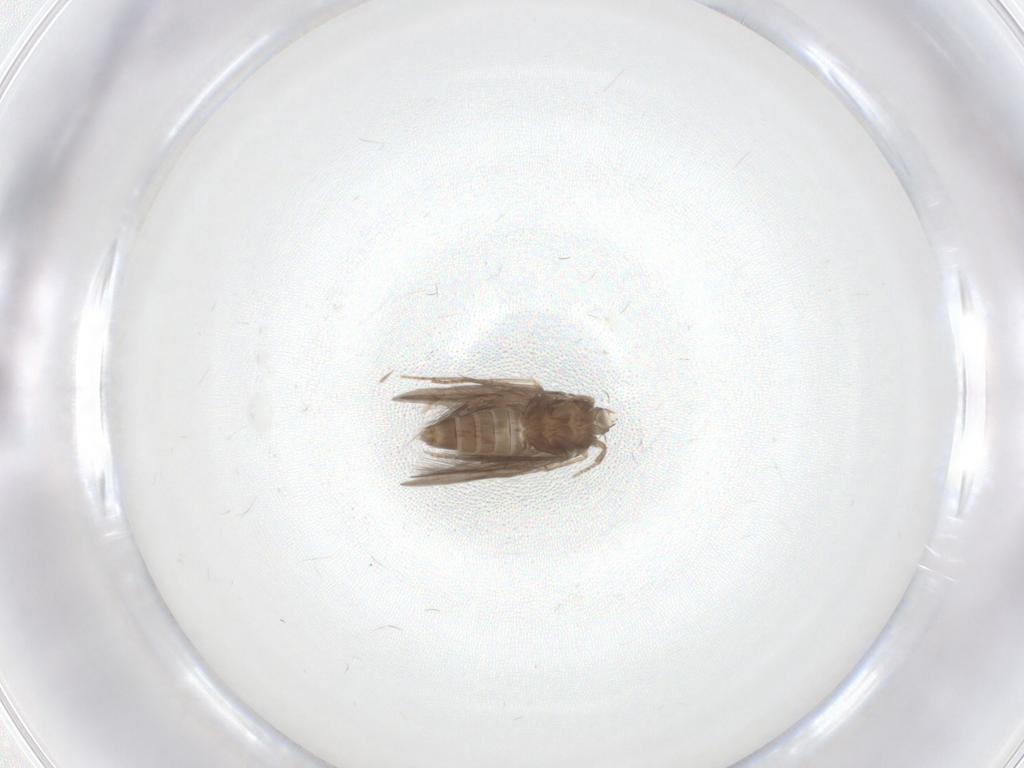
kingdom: Animalia
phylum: Arthropoda
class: Insecta
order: Trichoptera
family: Hydroptilidae
